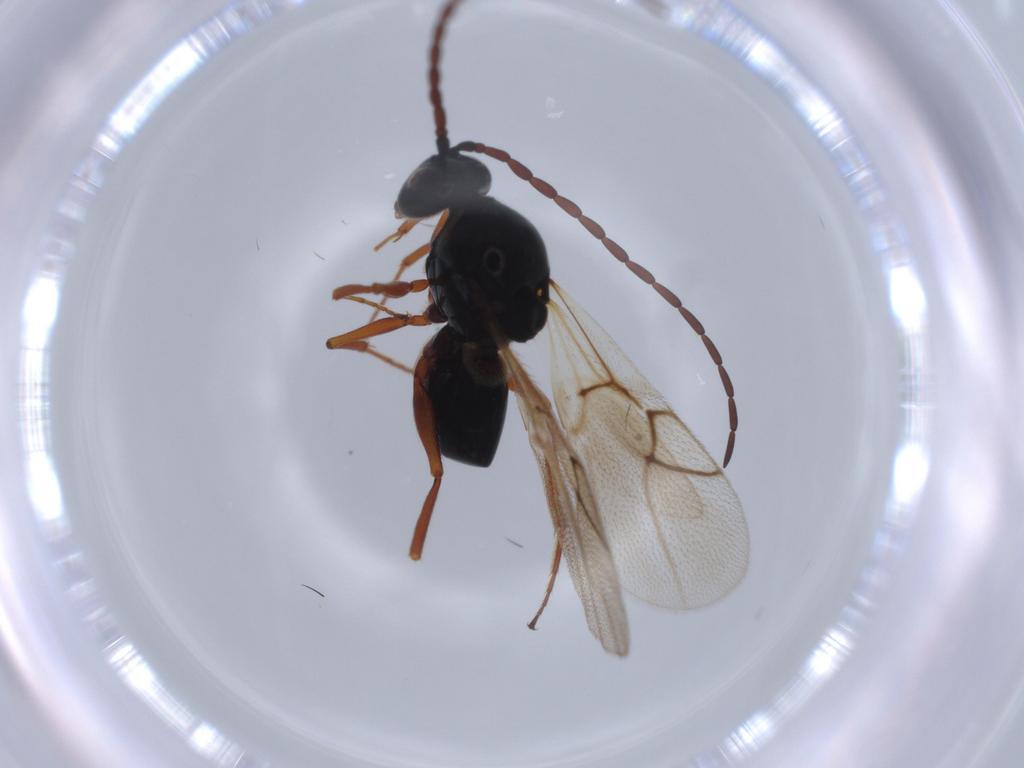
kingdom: Animalia
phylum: Arthropoda
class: Insecta
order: Hymenoptera
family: Figitidae
